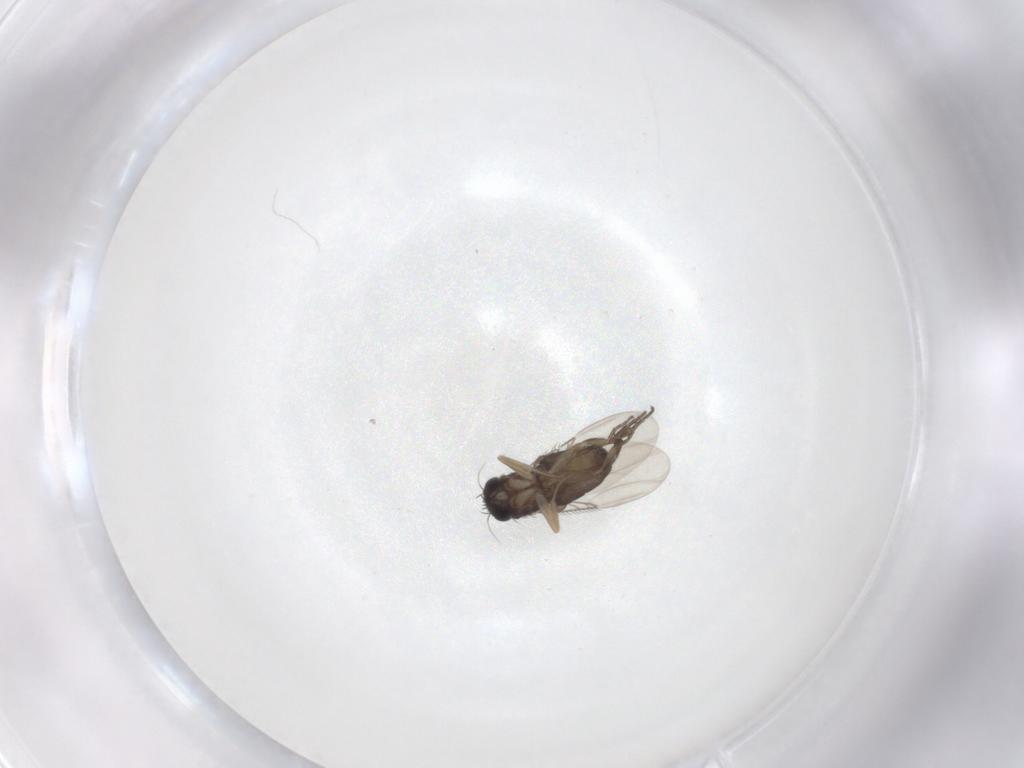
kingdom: Animalia
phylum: Arthropoda
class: Insecta
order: Diptera
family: Phoridae
